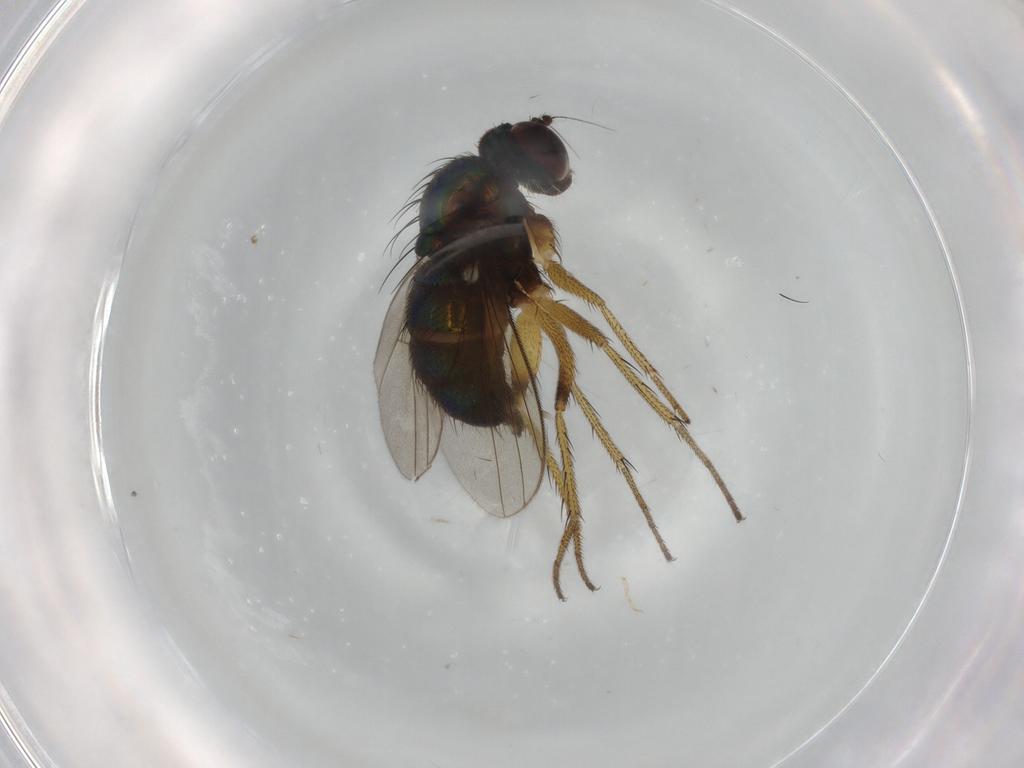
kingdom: Animalia
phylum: Arthropoda
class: Insecta
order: Diptera
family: Dolichopodidae
